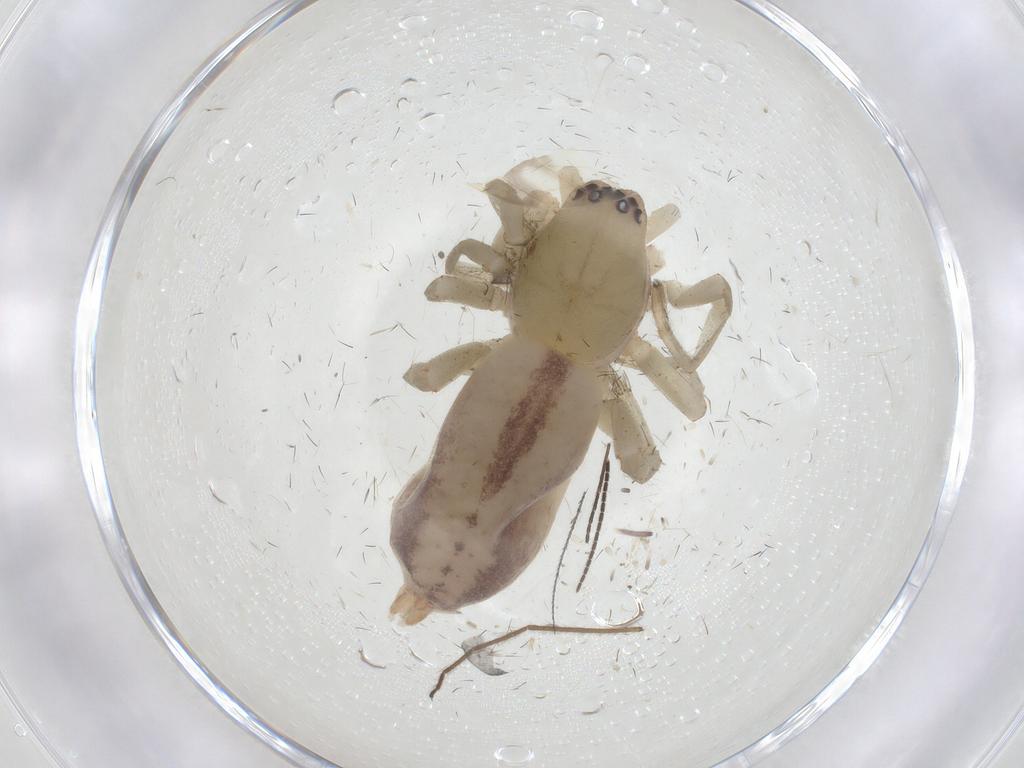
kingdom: Animalia
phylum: Arthropoda
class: Arachnida
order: Araneae
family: Clubionidae
